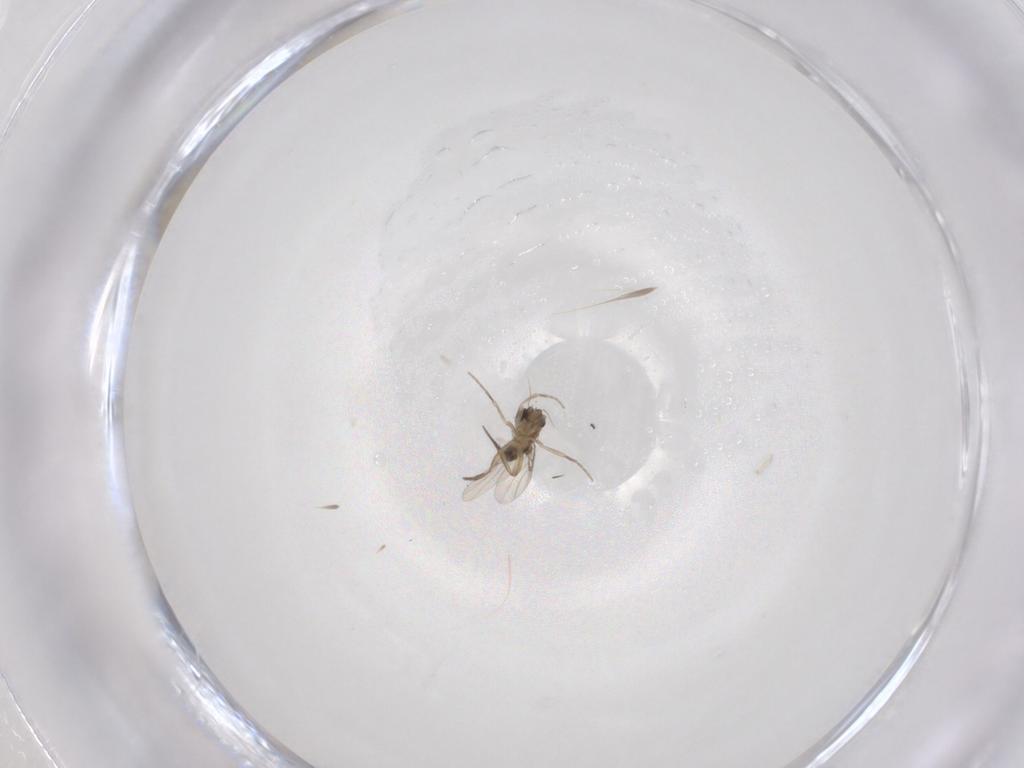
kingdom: Animalia
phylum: Arthropoda
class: Insecta
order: Diptera
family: Phoridae
